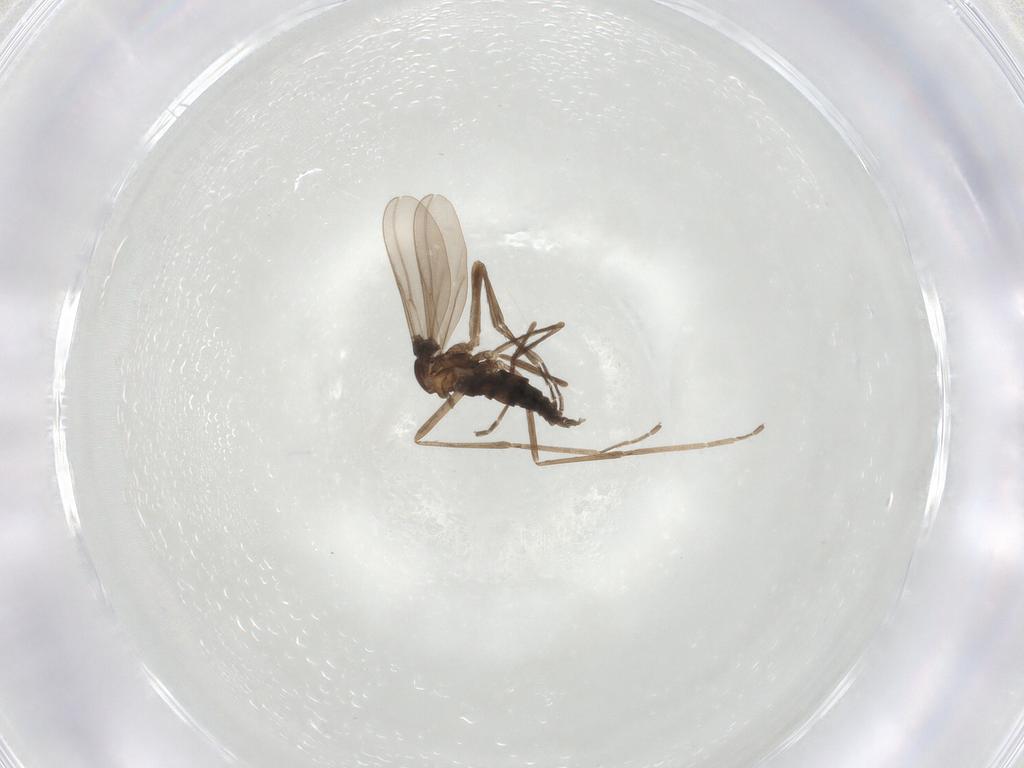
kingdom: Animalia
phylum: Arthropoda
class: Insecta
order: Diptera
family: Cecidomyiidae
